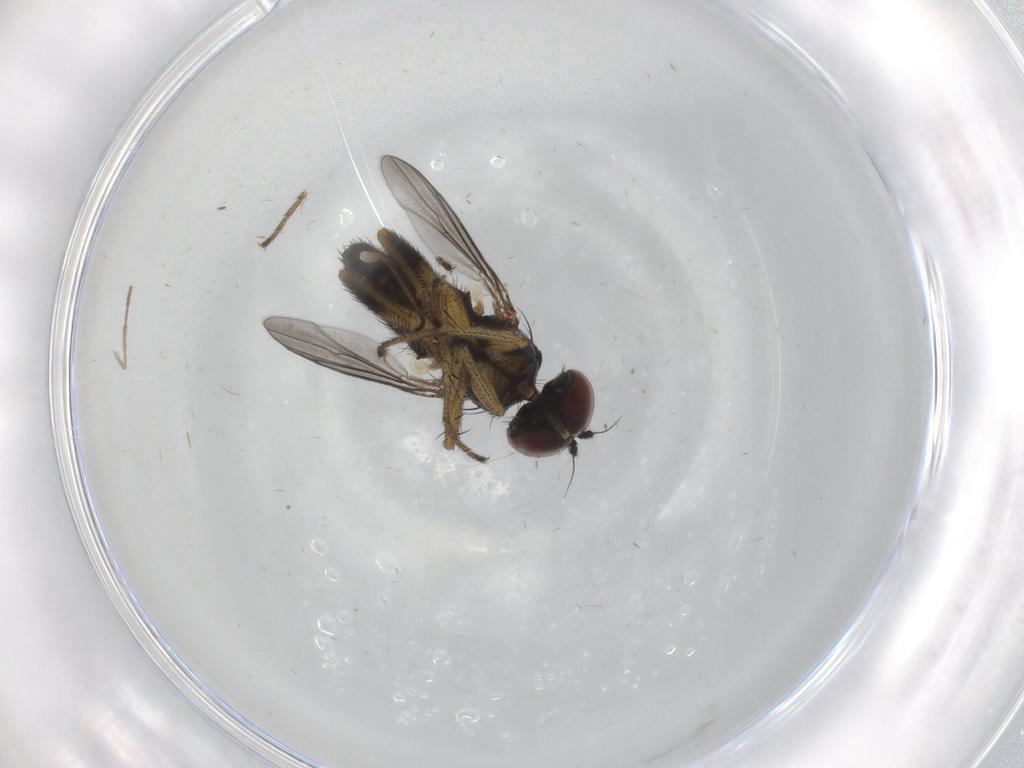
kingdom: Animalia
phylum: Arthropoda
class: Insecta
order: Diptera
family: Dolichopodidae
